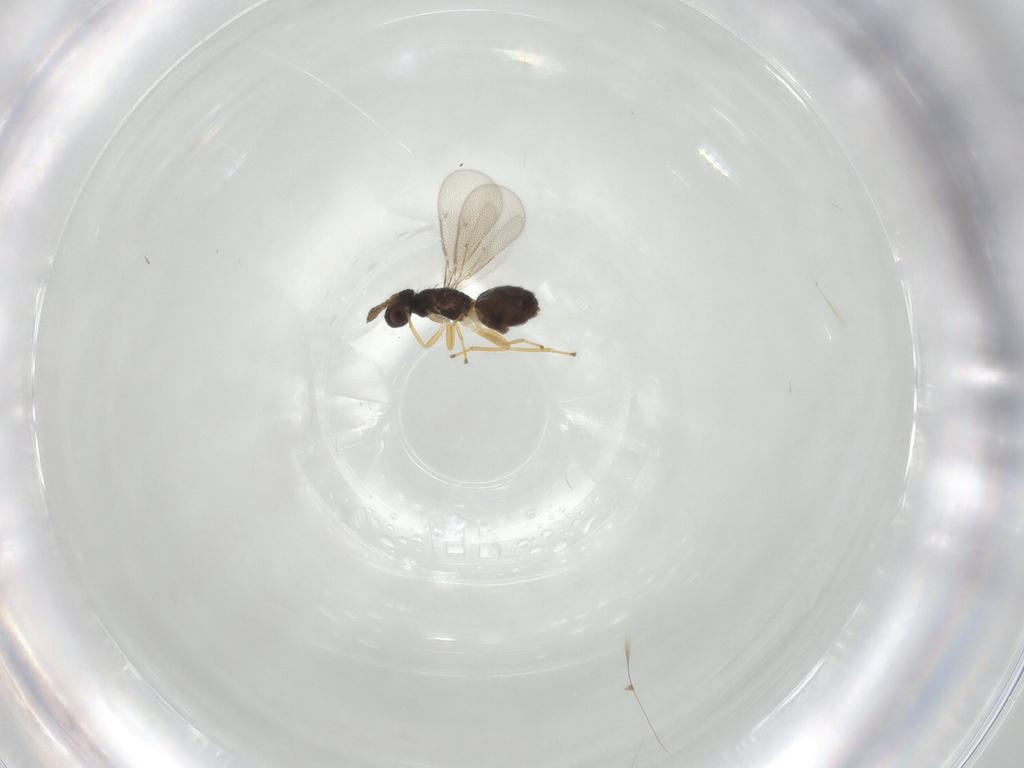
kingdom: Animalia
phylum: Arthropoda
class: Insecta
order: Hymenoptera
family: Eulophidae
